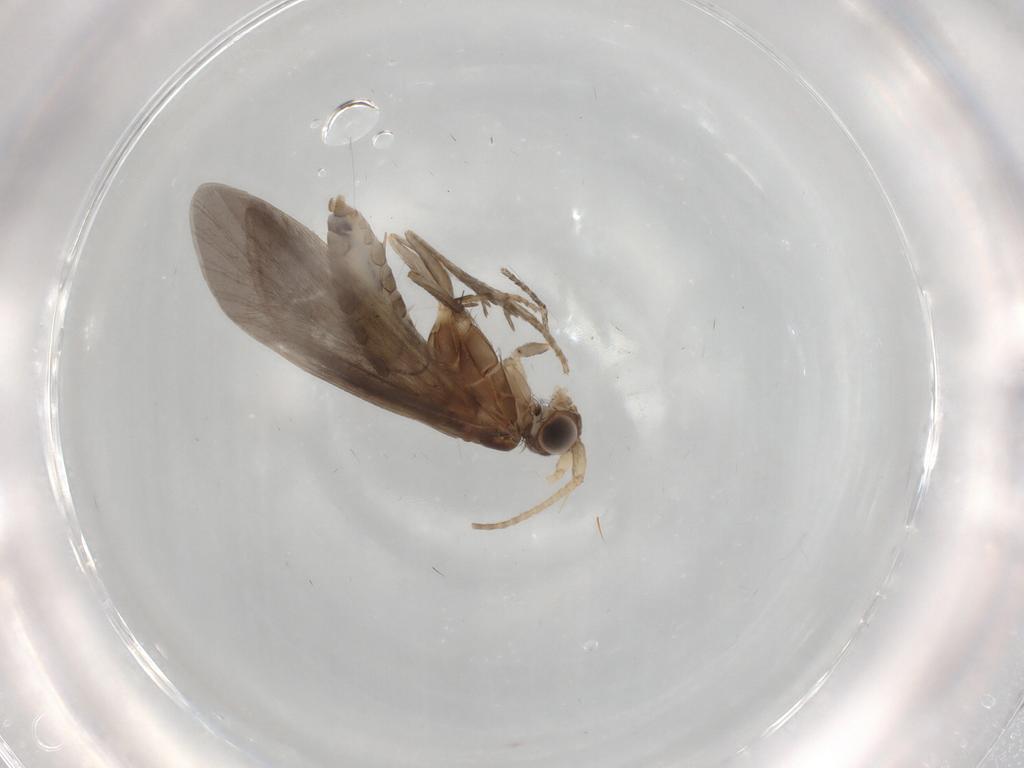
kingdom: Animalia
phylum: Arthropoda
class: Insecta
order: Trichoptera
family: Helicopsychidae
